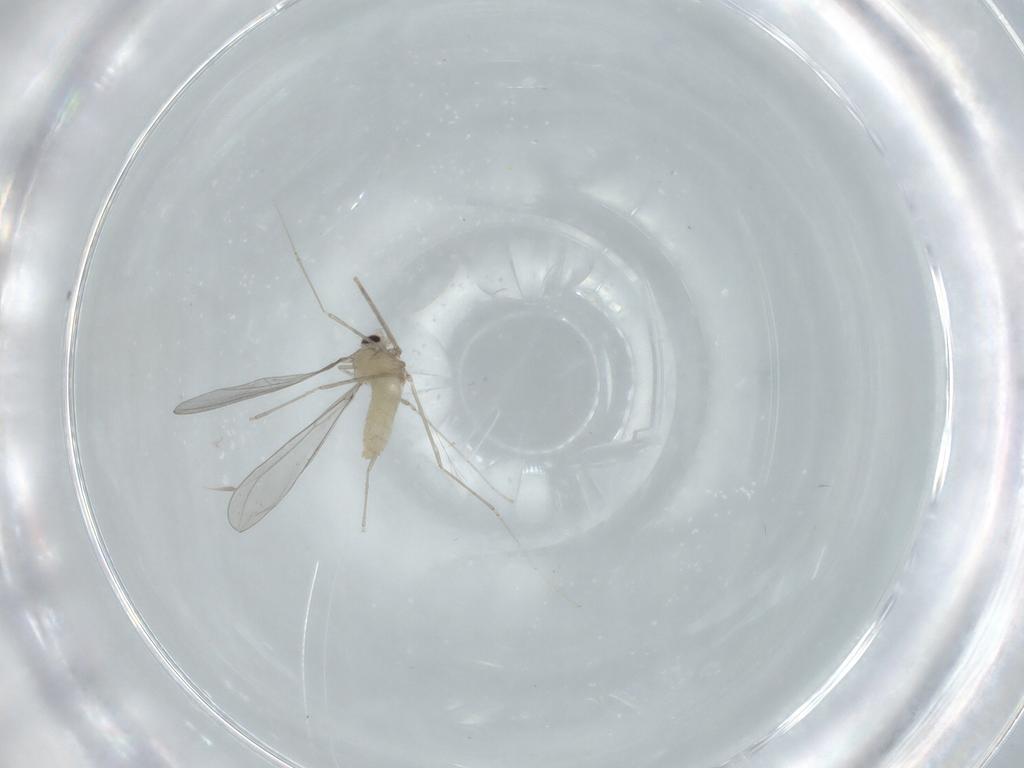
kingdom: Animalia
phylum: Arthropoda
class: Insecta
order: Diptera
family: Cecidomyiidae
